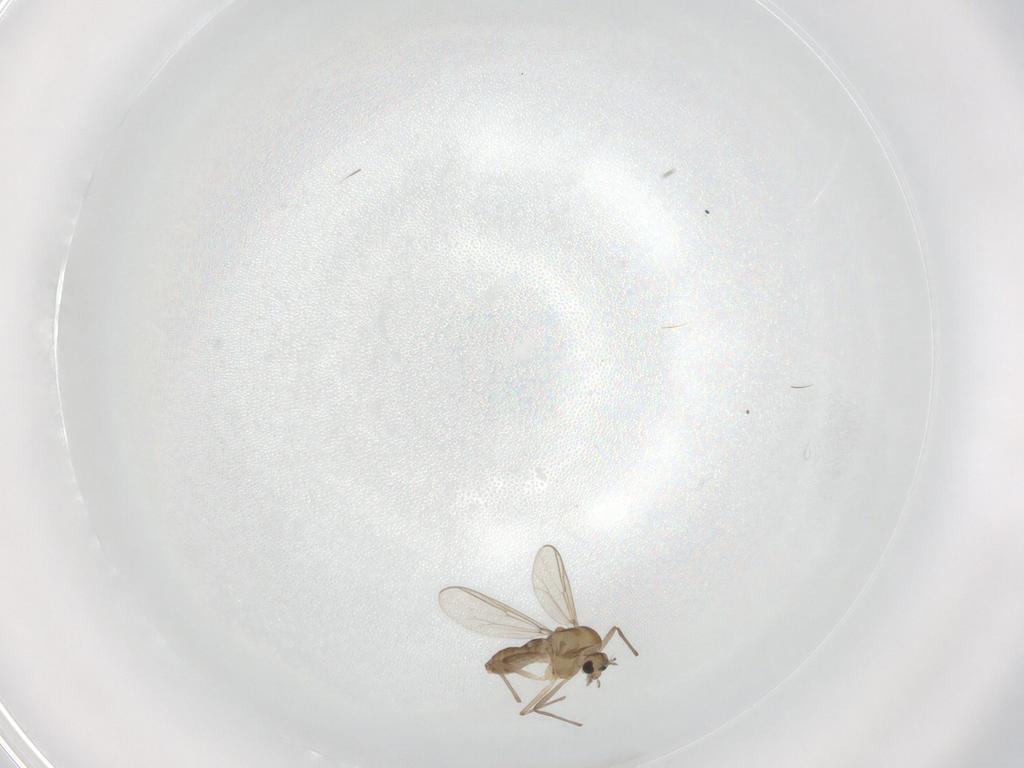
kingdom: Animalia
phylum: Arthropoda
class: Insecta
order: Diptera
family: Chironomidae
